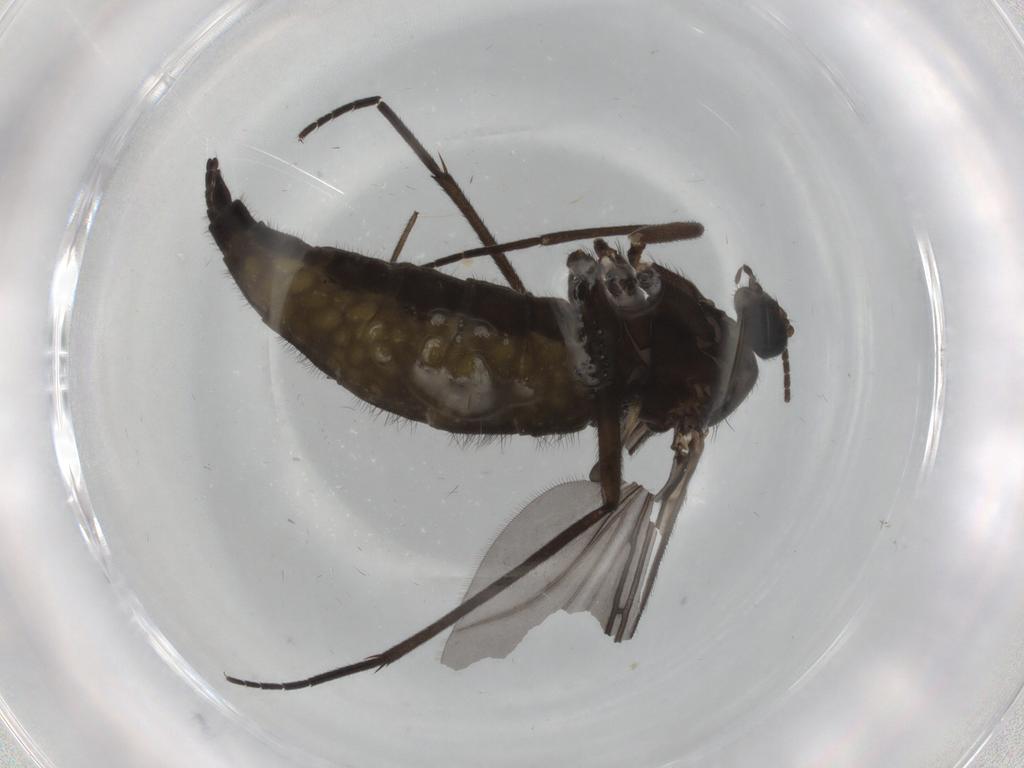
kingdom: Animalia
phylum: Arthropoda
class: Insecta
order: Diptera
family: Sciaridae
